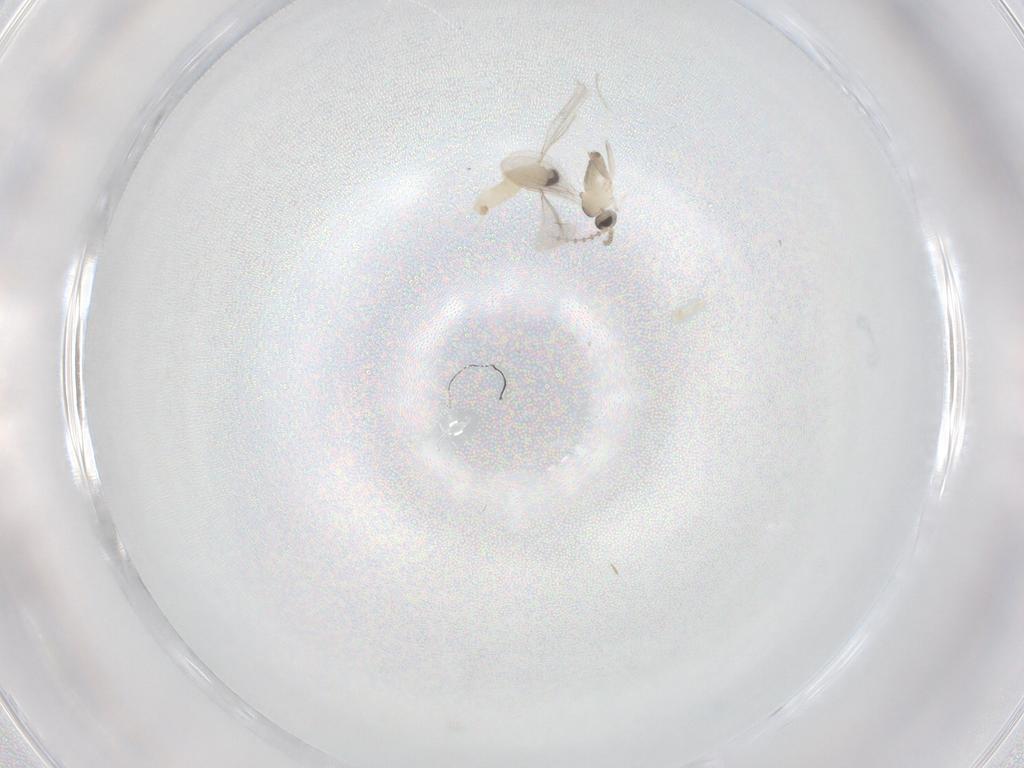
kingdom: Animalia
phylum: Arthropoda
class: Insecta
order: Diptera
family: Cecidomyiidae
